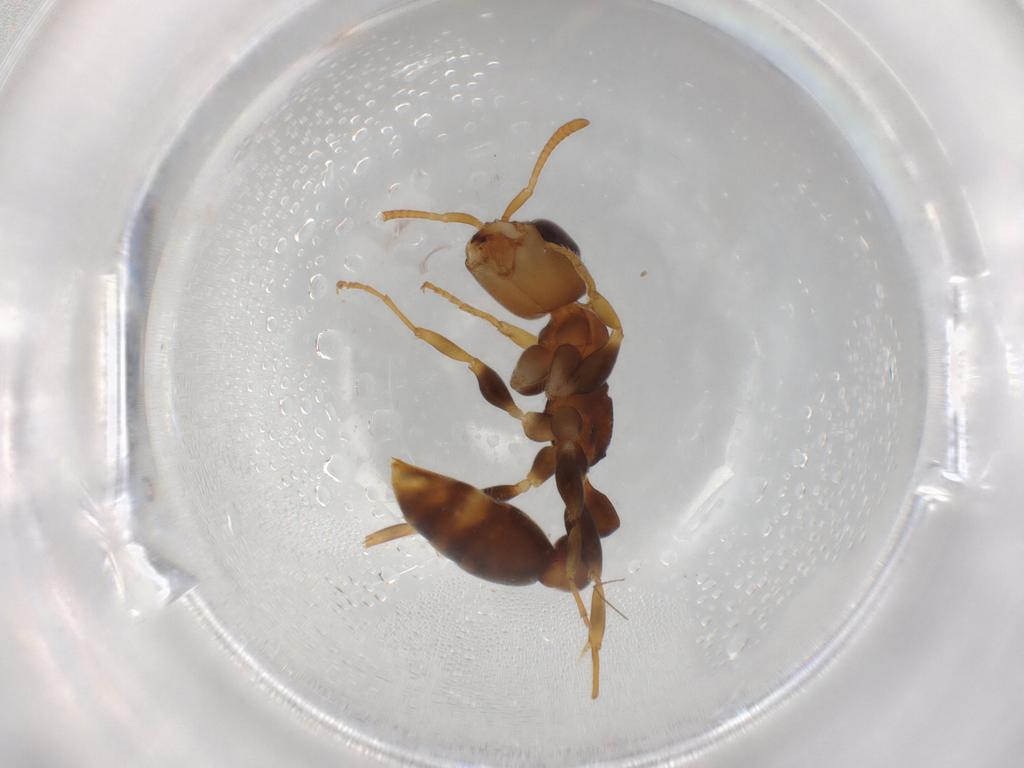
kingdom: Animalia
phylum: Arthropoda
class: Insecta
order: Hymenoptera
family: Formicidae
